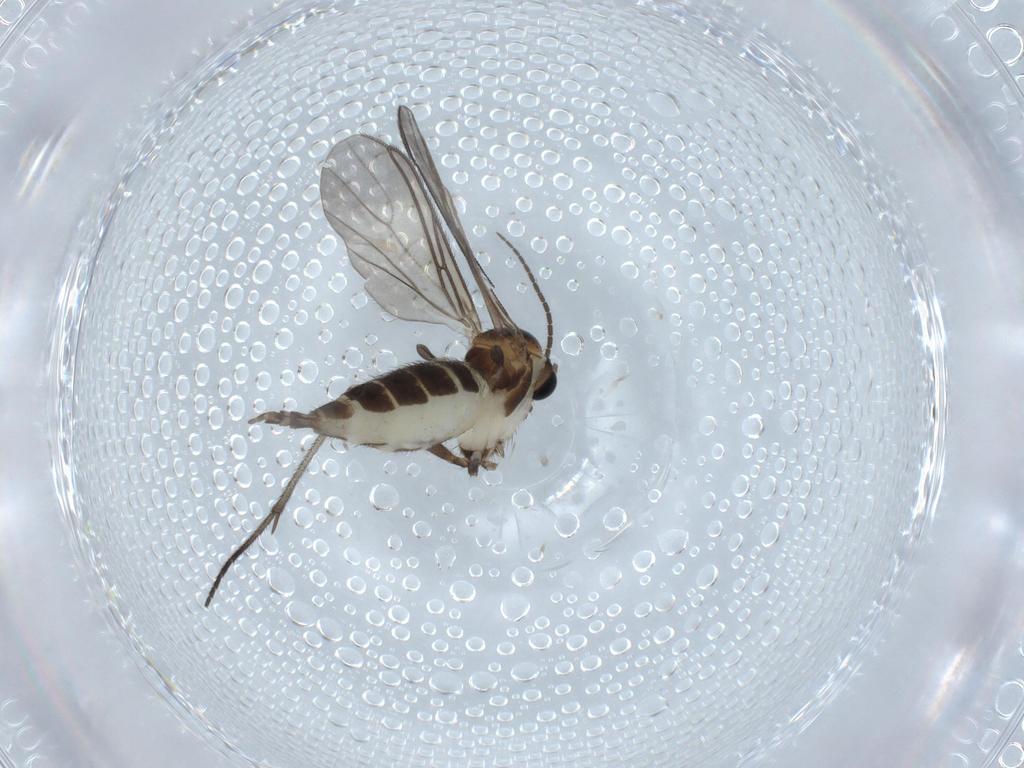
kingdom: Animalia
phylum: Arthropoda
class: Insecta
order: Diptera
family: Sciaridae
